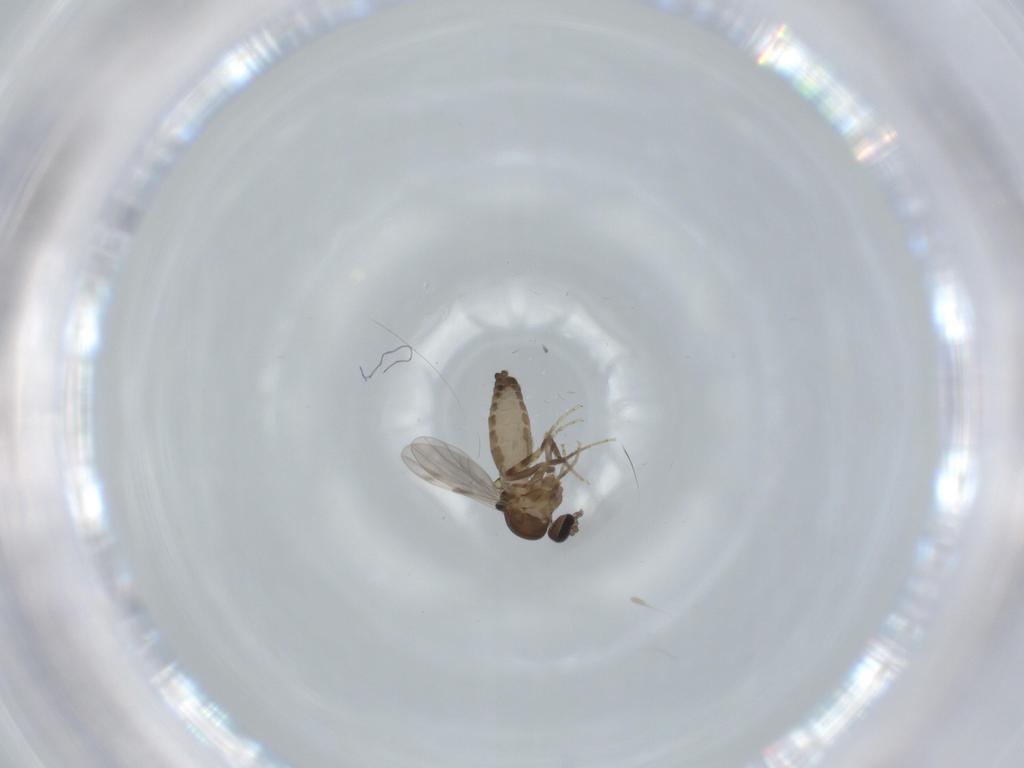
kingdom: Animalia
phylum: Arthropoda
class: Insecta
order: Diptera
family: Ceratopogonidae
